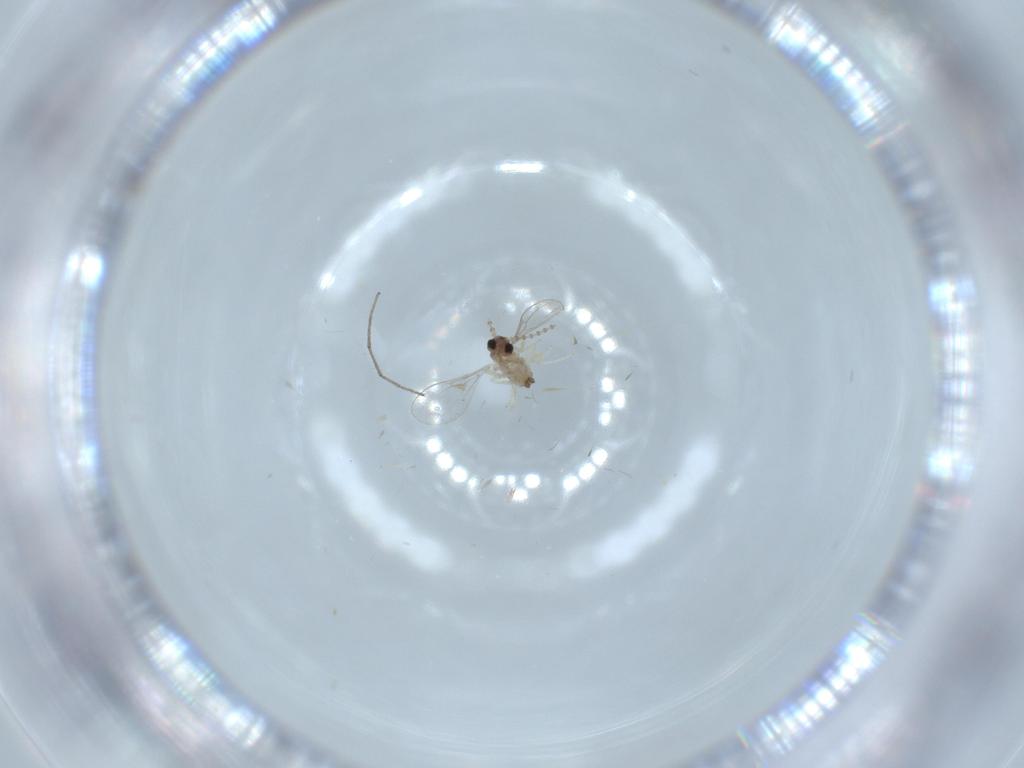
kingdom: Animalia
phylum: Arthropoda
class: Insecta
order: Diptera
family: Cecidomyiidae
